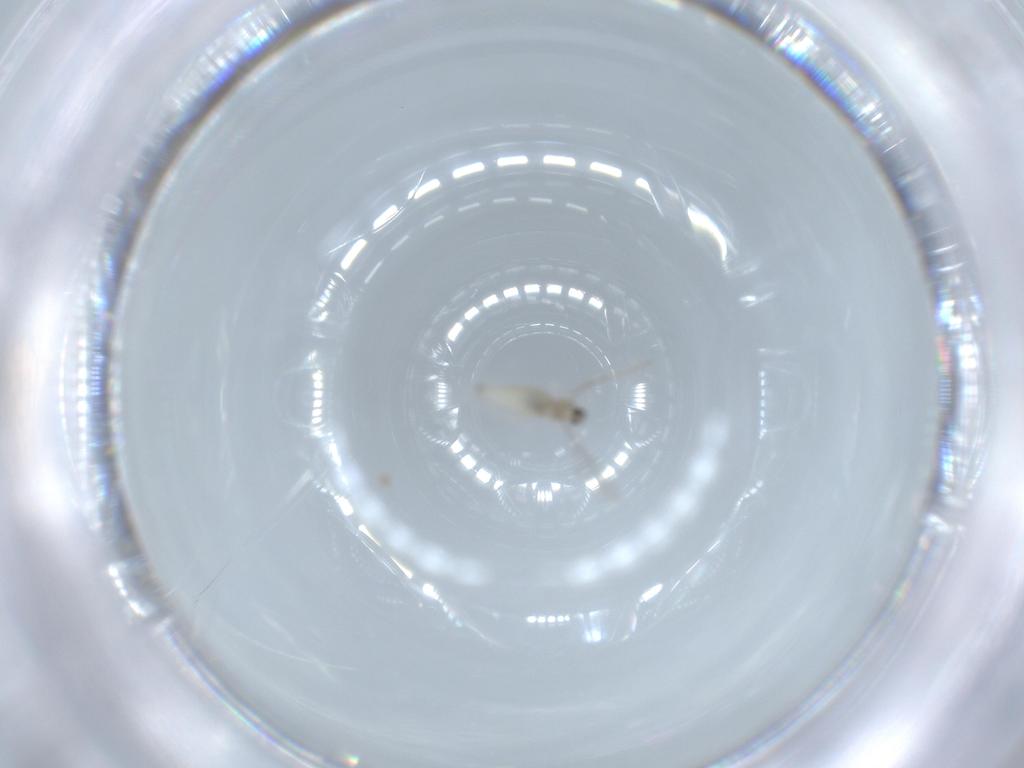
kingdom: Animalia
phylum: Arthropoda
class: Insecta
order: Diptera
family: Cecidomyiidae
